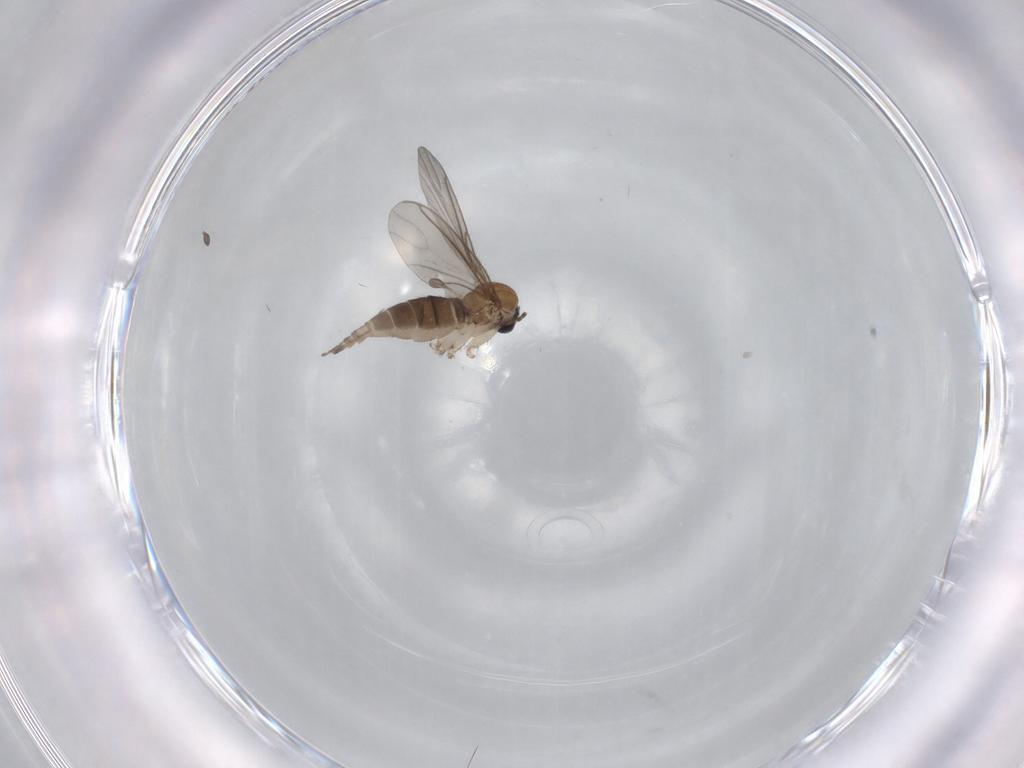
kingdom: Animalia
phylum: Arthropoda
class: Insecta
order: Diptera
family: Sciaridae
